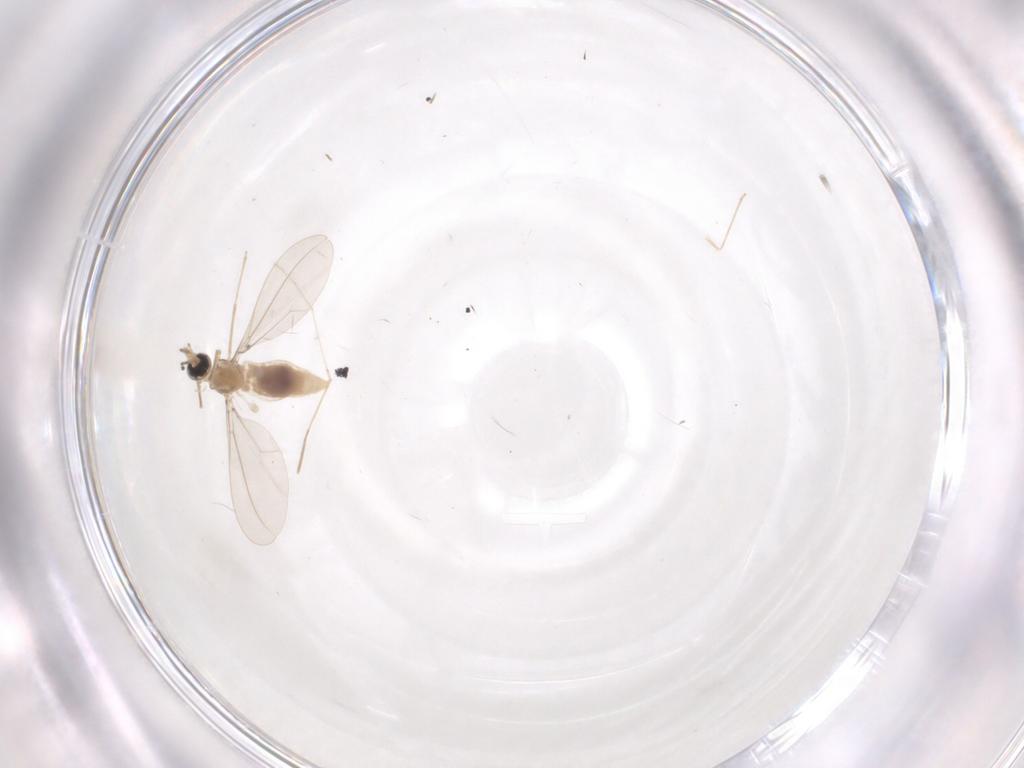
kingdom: Animalia
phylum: Arthropoda
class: Insecta
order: Diptera
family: Cecidomyiidae
